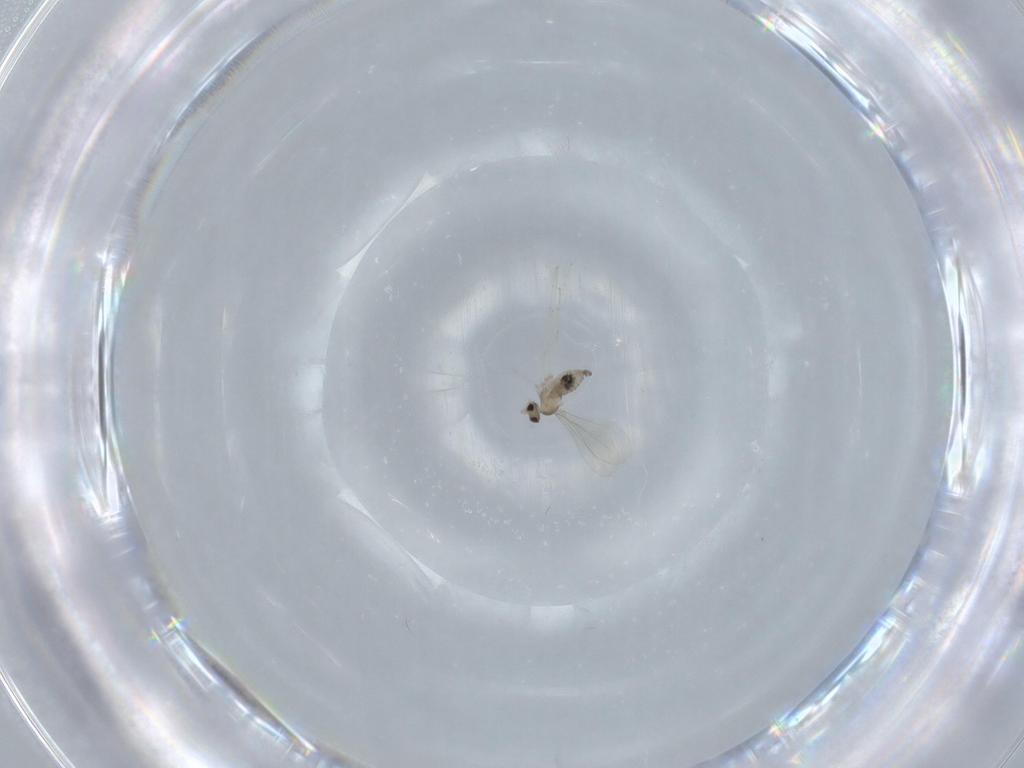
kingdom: Animalia
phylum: Arthropoda
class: Insecta
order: Diptera
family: Cecidomyiidae
